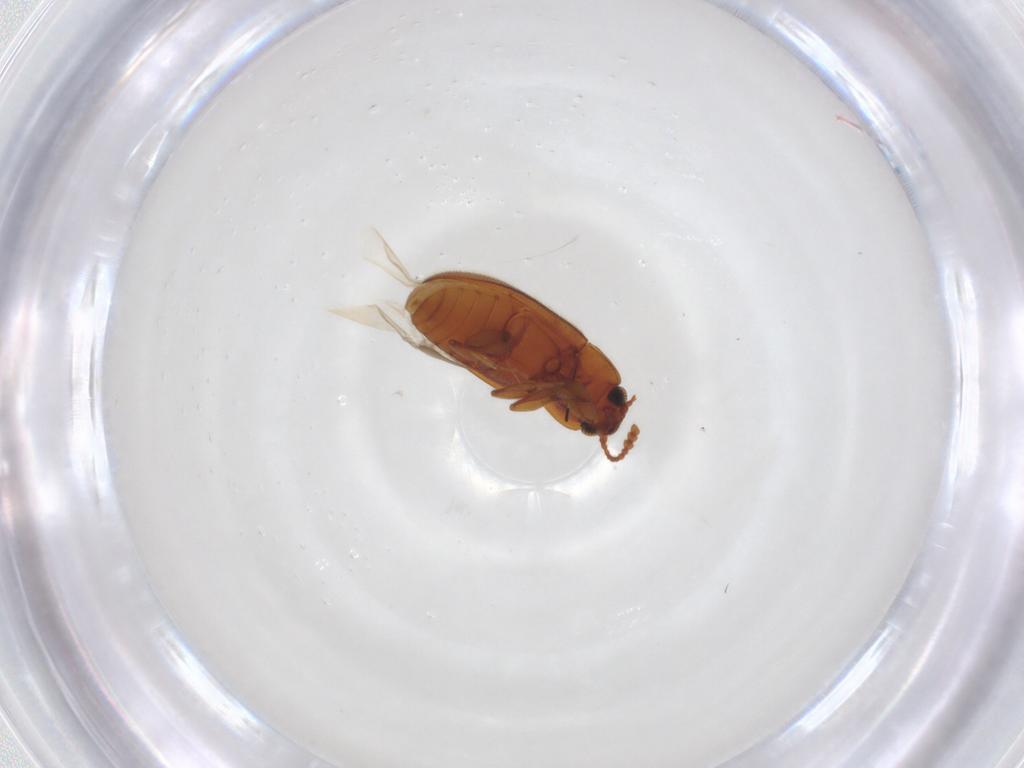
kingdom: Animalia
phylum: Arthropoda
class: Insecta
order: Coleoptera
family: Erotylidae
